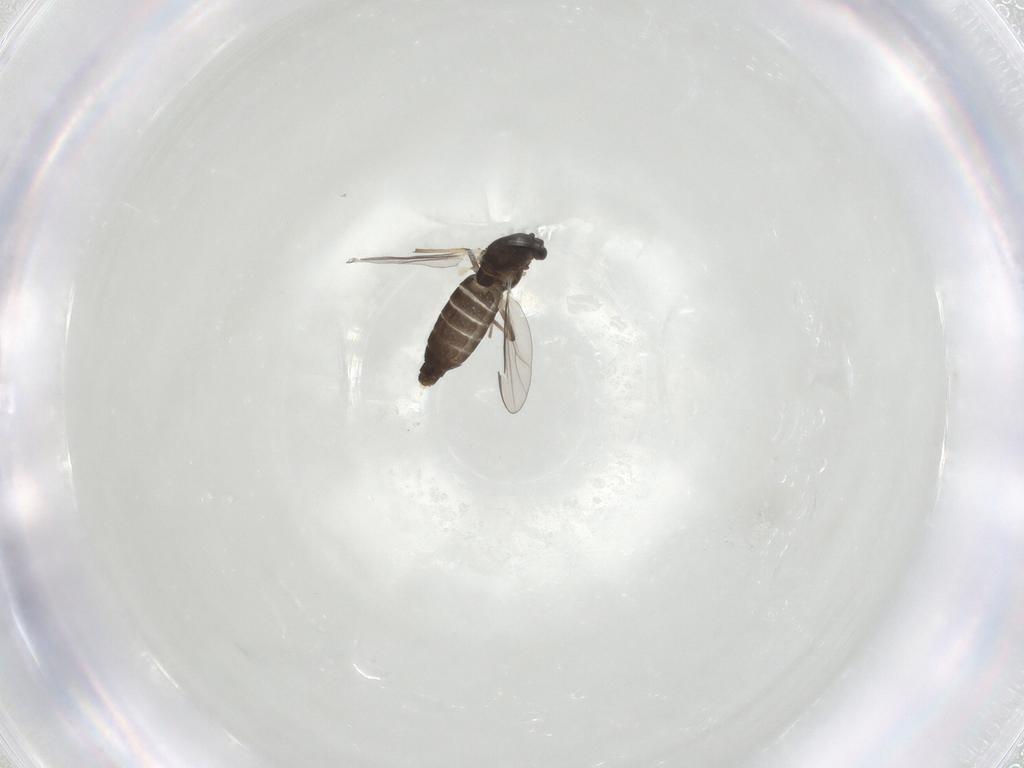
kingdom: Animalia
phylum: Arthropoda
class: Insecta
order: Diptera
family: Chironomidae
